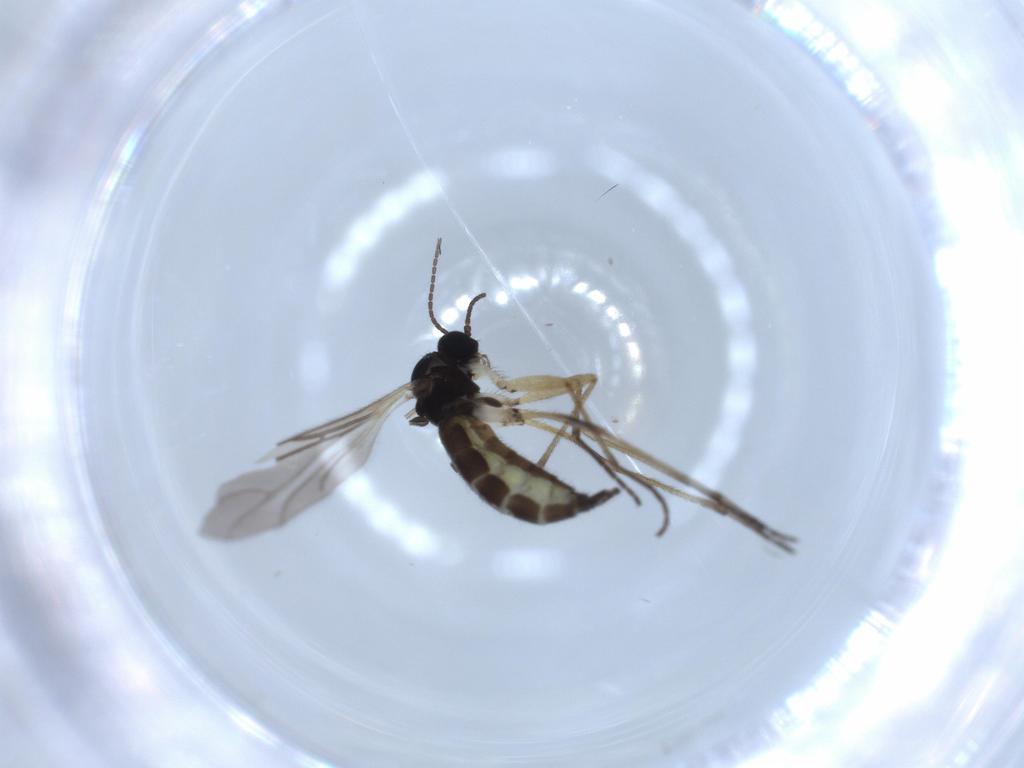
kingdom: Animalia
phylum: Arthropoda
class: Insecta
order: Diptera
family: Sciaridae
